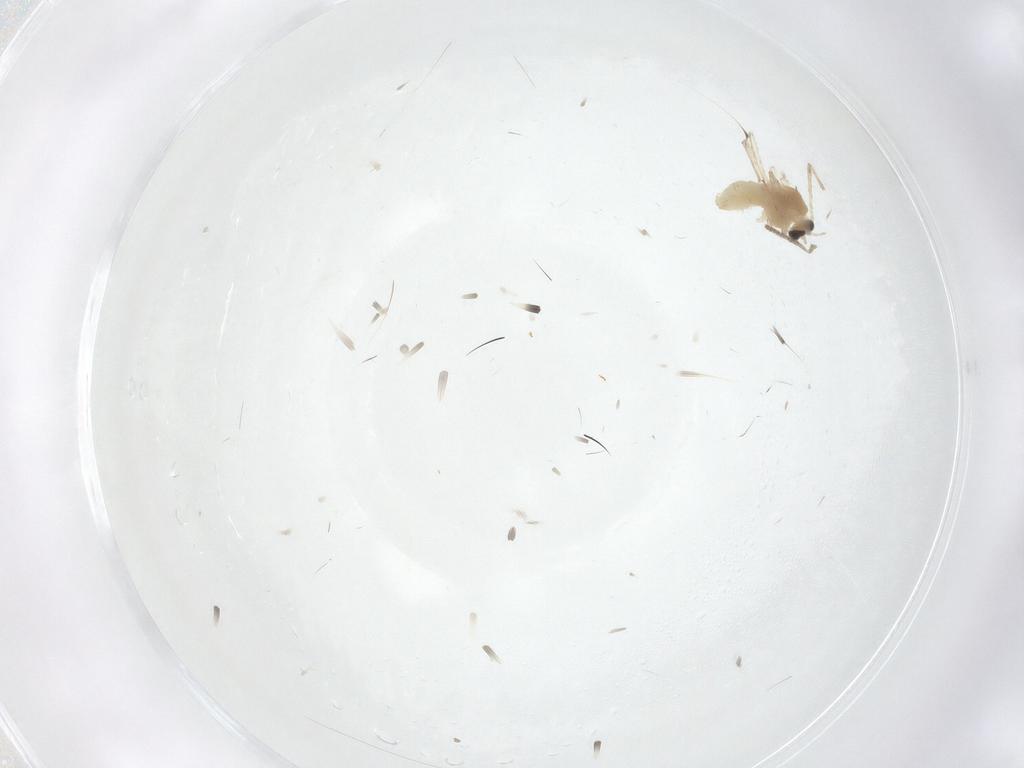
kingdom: Animalia
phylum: Arthropoda
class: Insecta
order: Diptera
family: Chironomidae
